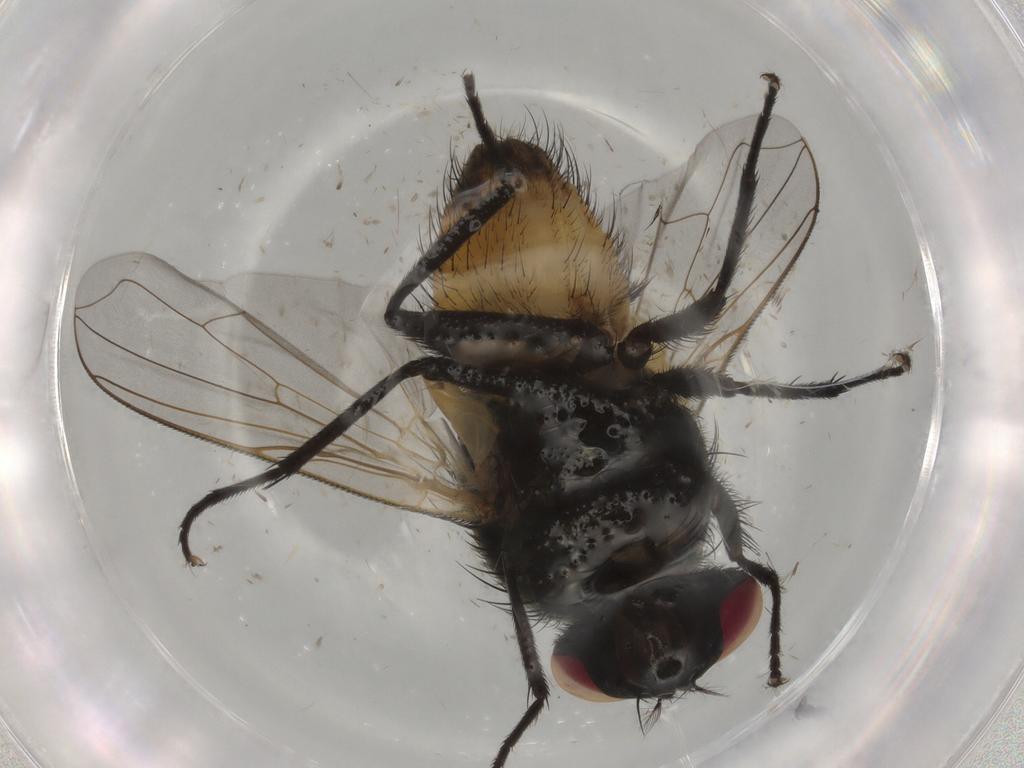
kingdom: Animalia
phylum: Arthropoda
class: Insecta
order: Diptera
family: Muscidae
